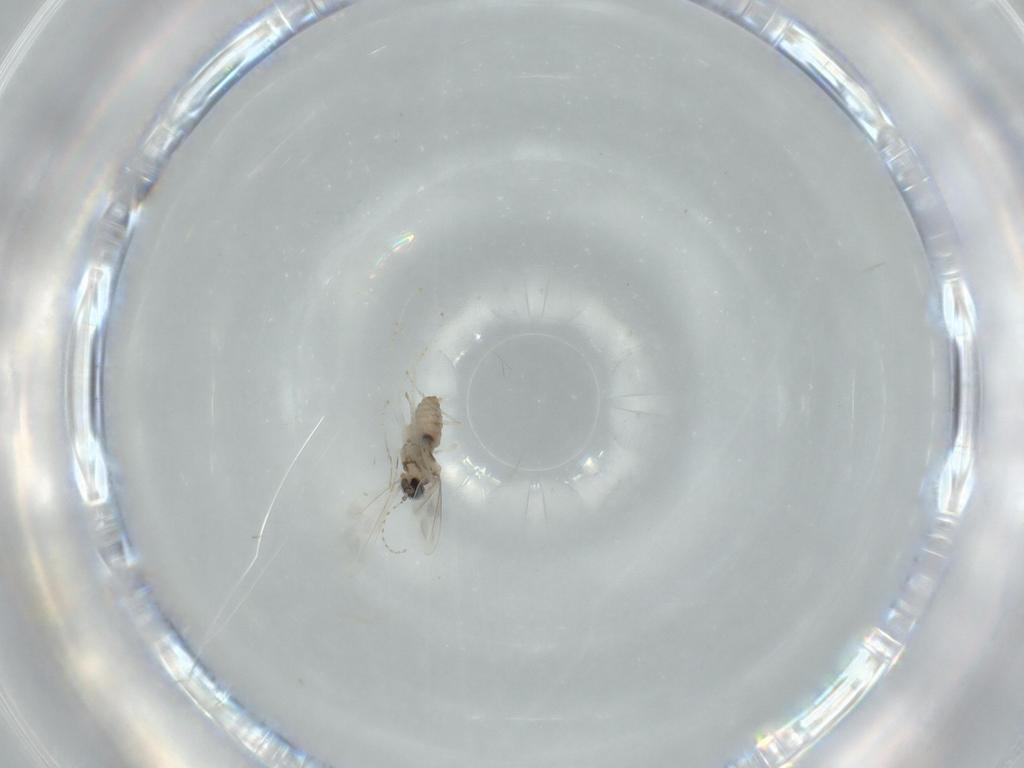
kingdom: Animalia
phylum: Arthropoda
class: Insecta
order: Diptera
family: Cecidomyiidae
